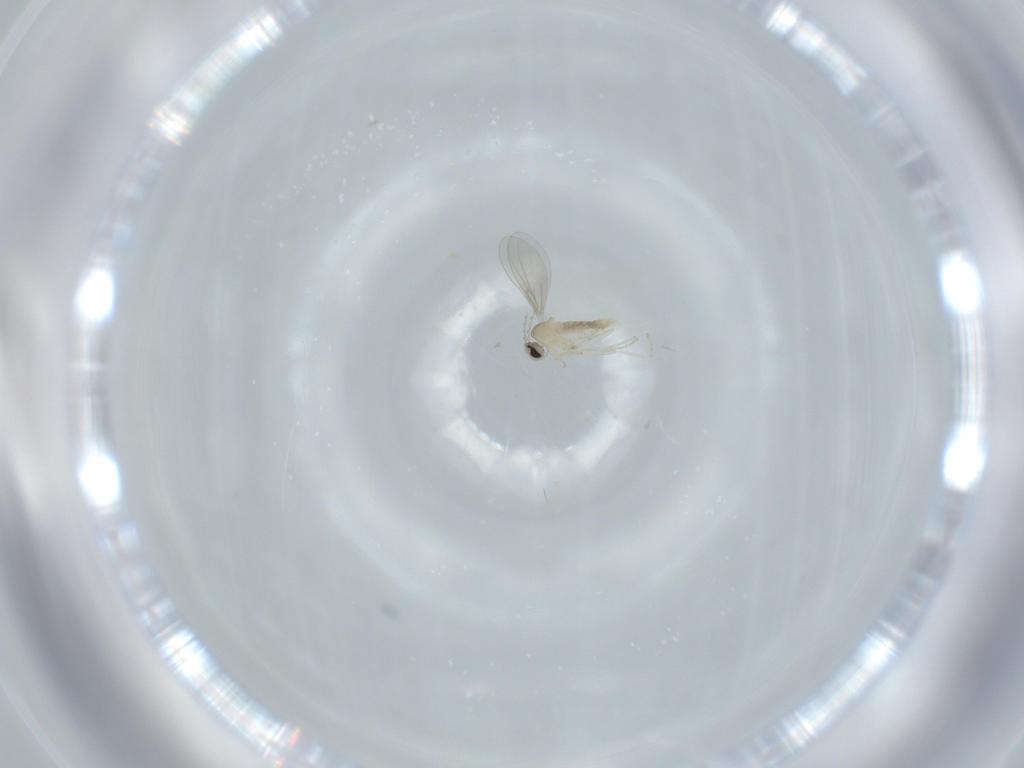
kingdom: Animalia
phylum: Arthropoda
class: Insecta
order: Diptera
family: Cecidomyiidae
